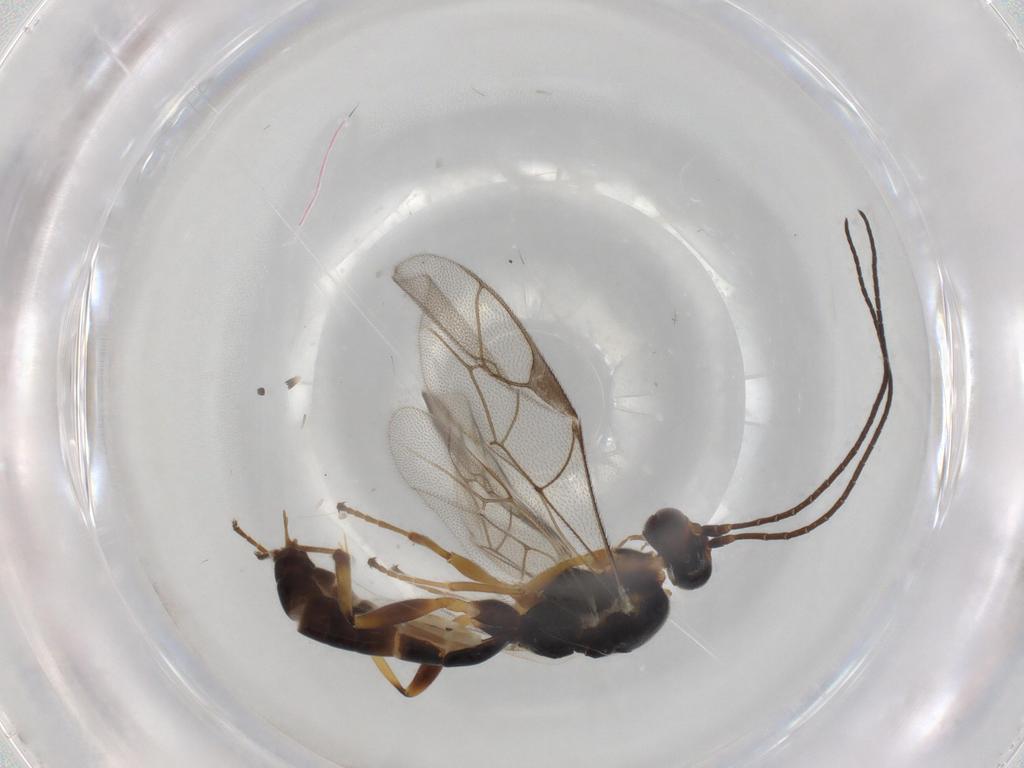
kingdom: Animalia
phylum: Arthropoda
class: Insecta
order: Hymenoptera
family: Ichneumonidae
